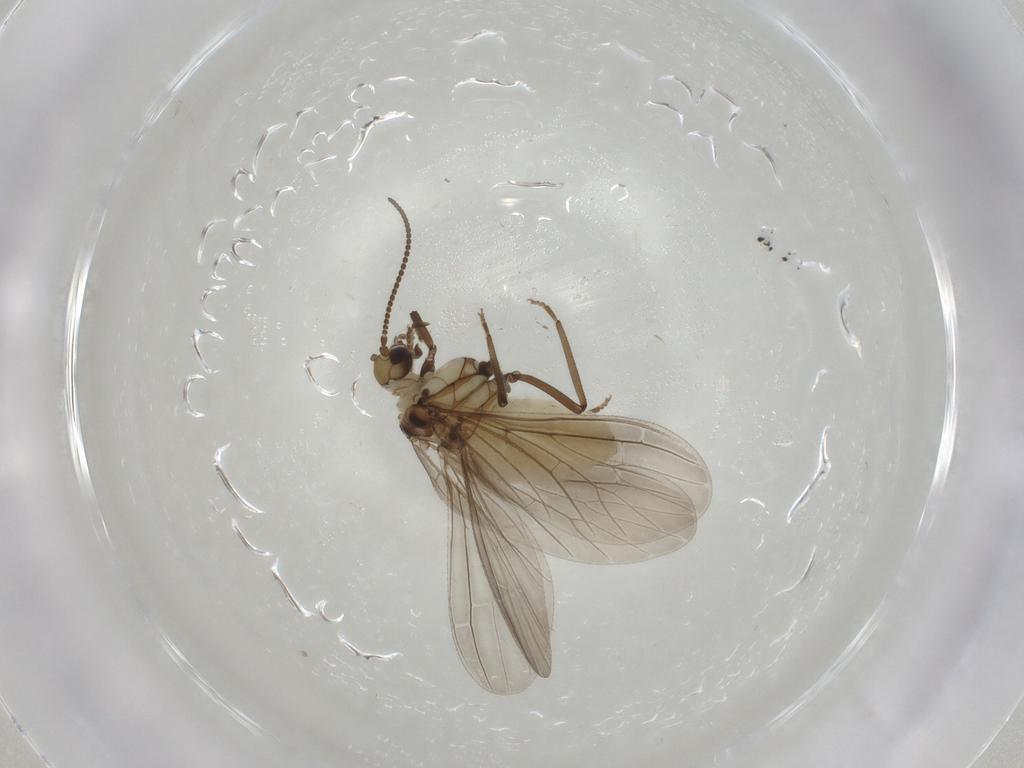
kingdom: Animalia
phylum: Arthropoda
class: Insecta
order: Neuroptera
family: Coniopterygidae
